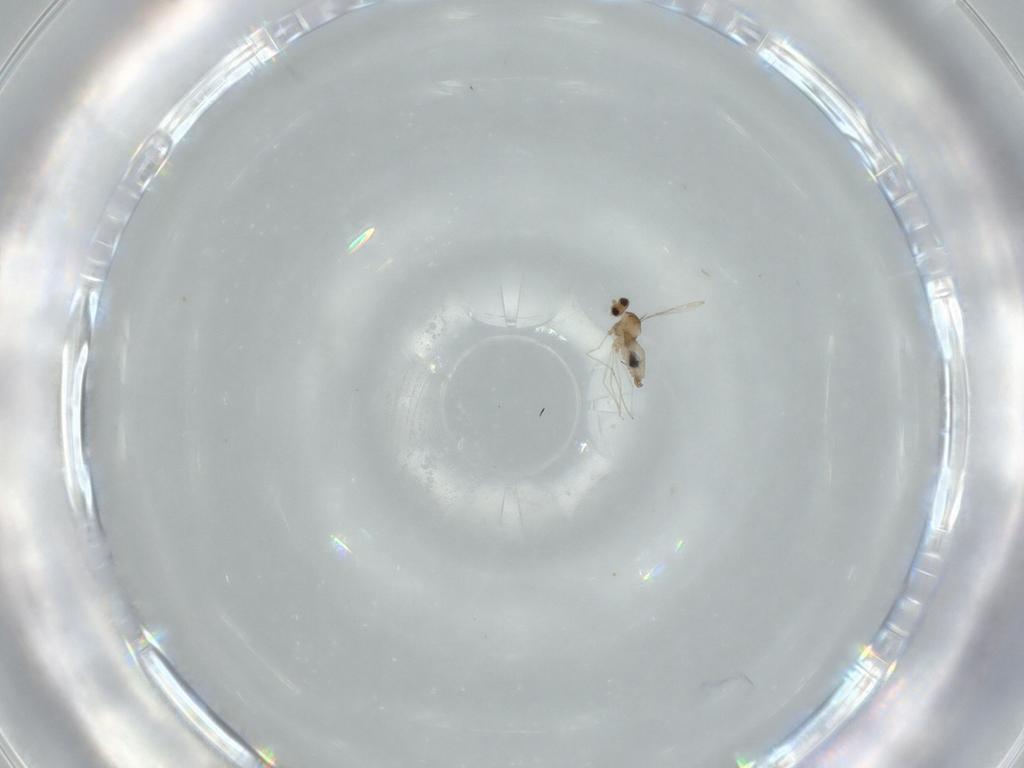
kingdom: Animalia
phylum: Arthropoda
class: Insecta
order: Diptera
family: Cecidomyiidae
